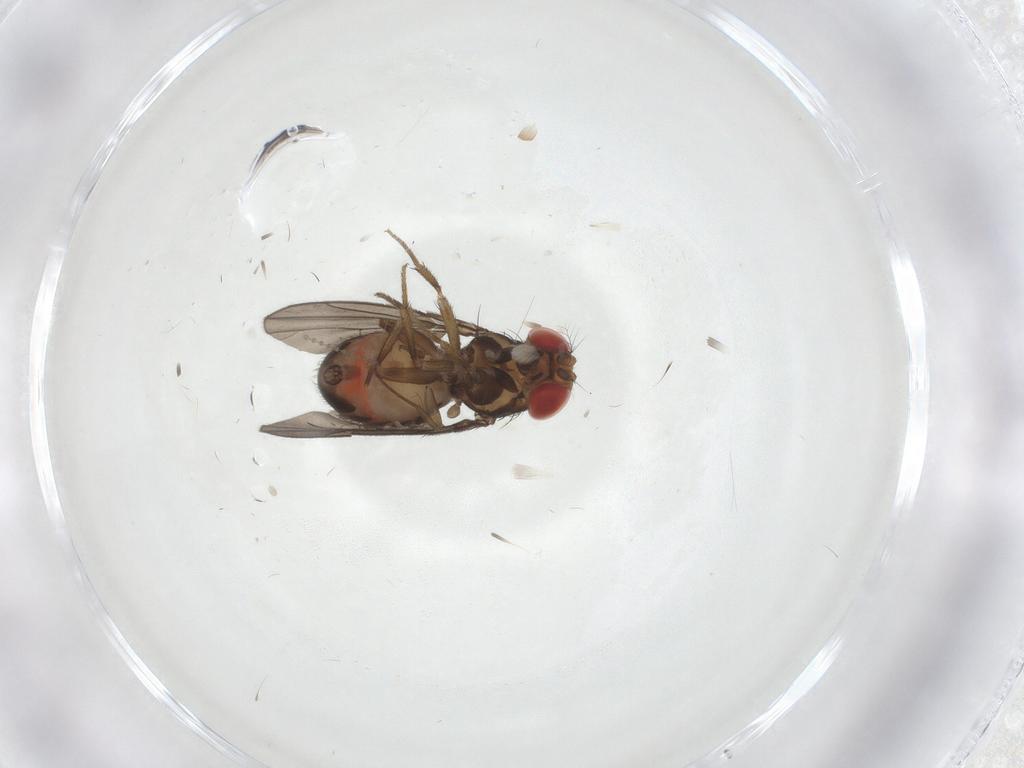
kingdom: Animalia
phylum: Arthropoda
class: Insecta
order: Diptera
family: Drosophilidae
